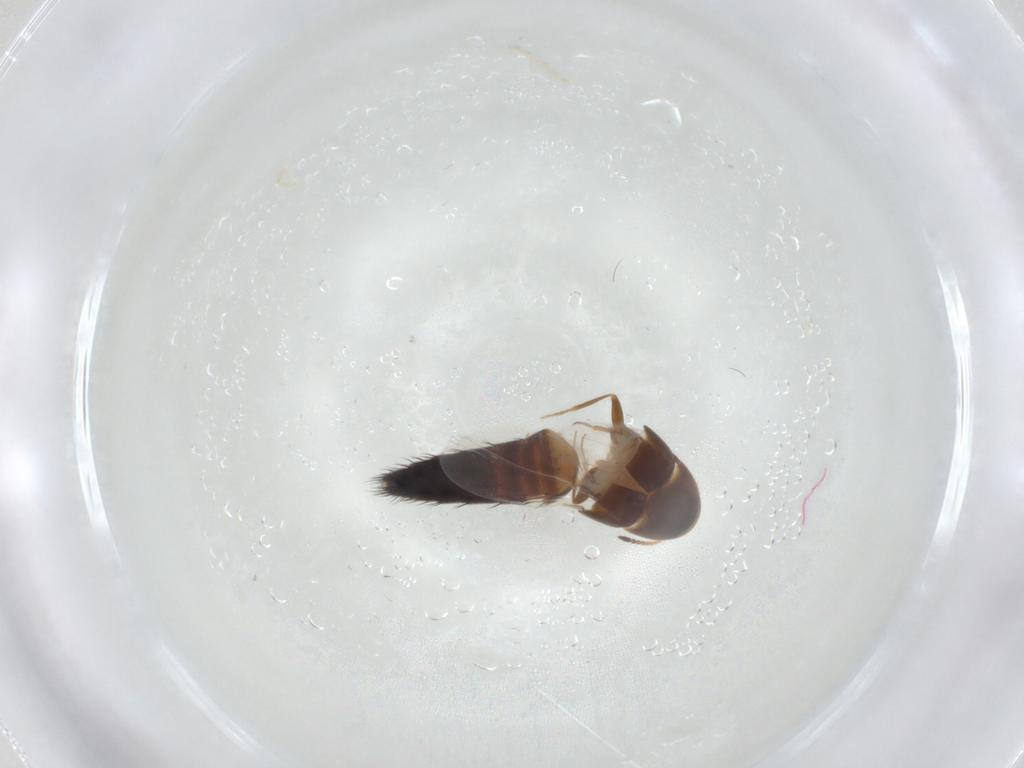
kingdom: Animalia
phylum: Arthropoda
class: Insecta
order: Coleoptera
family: Staphylinidae
